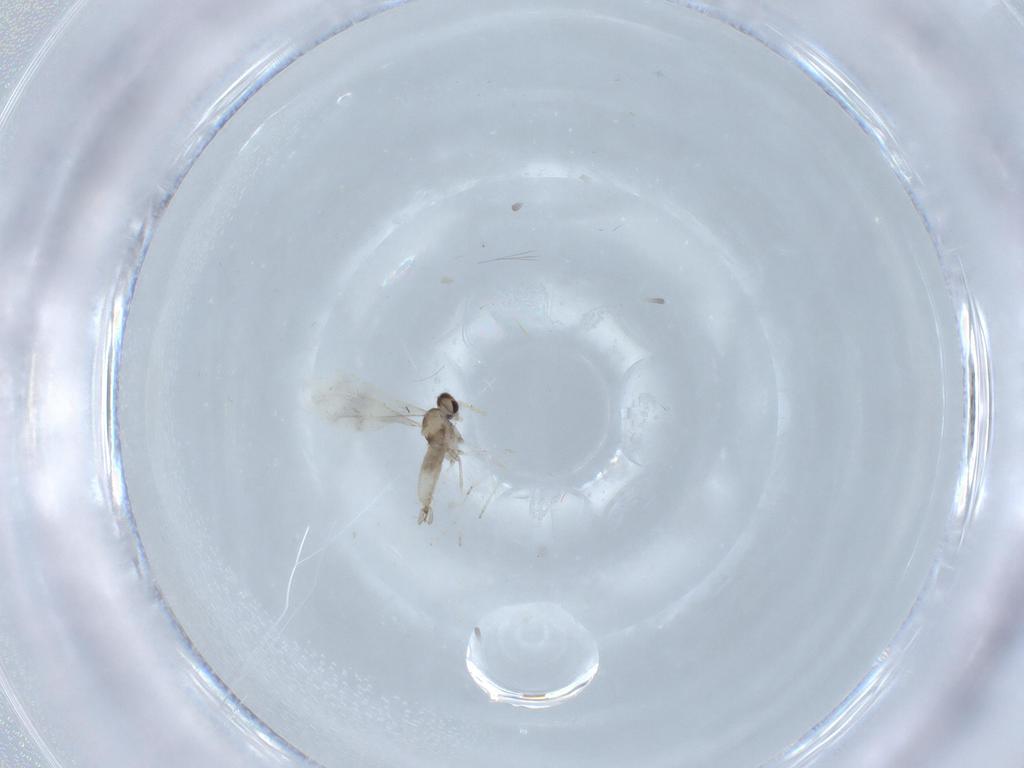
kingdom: Animalia
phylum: Arthropoda
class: Insecta
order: Diptera
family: Cecidomyiidae
